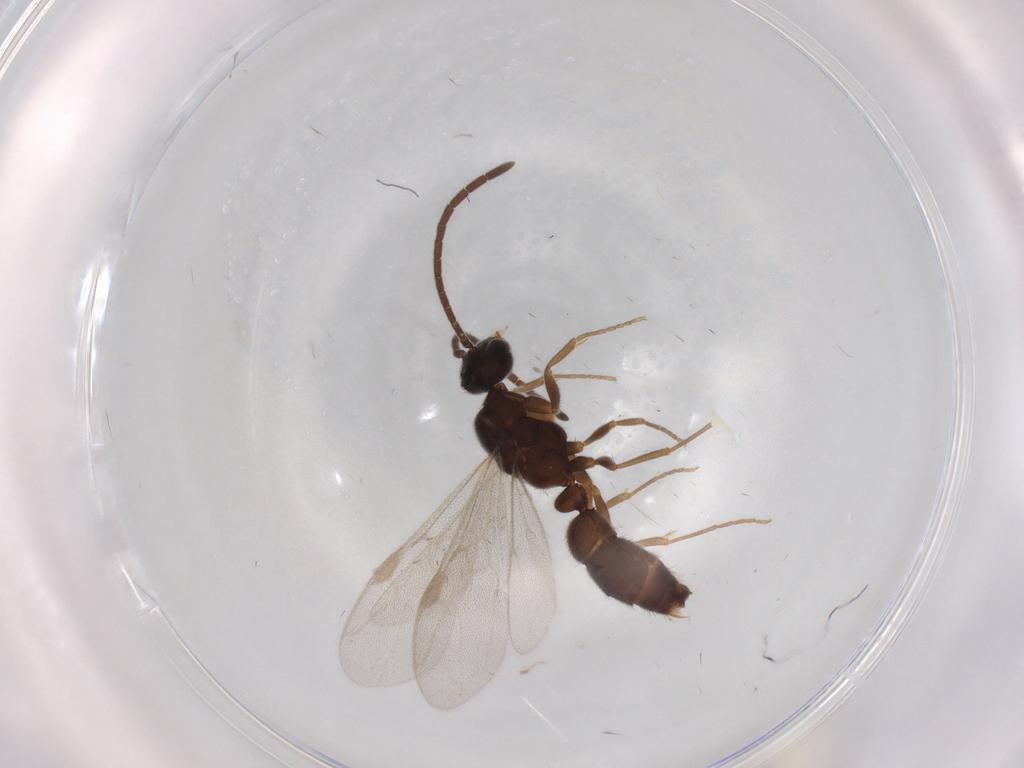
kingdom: Animalia
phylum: Arthropoda
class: Insecta
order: Hymenoptera
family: Formicidae
